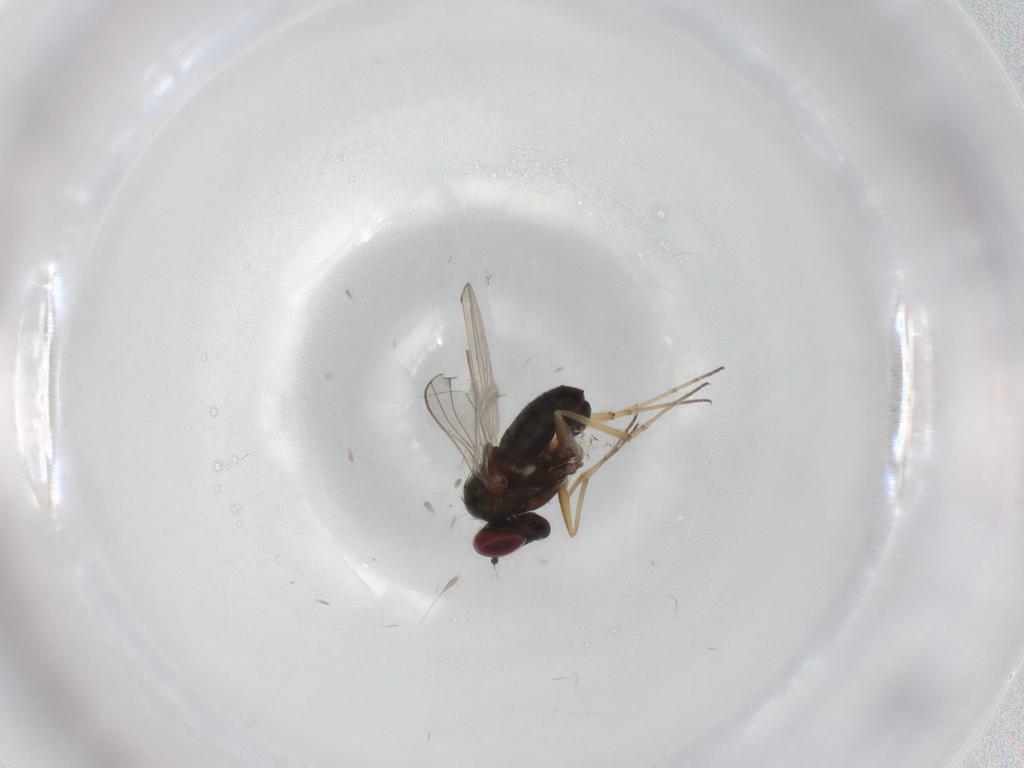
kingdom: Animalia
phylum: Arthropoda
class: Insecta
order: Diptera
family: Dolichopodidae
